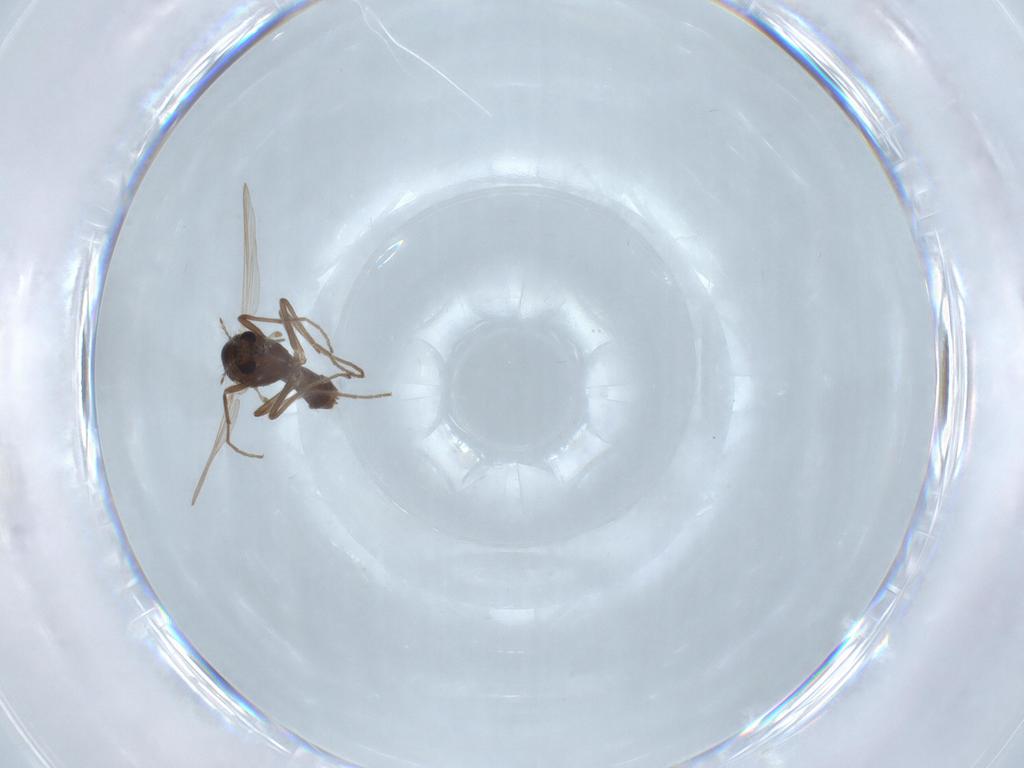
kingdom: Animalia
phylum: Arthropoda
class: Insecta
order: Diptera
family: Chironomidae
